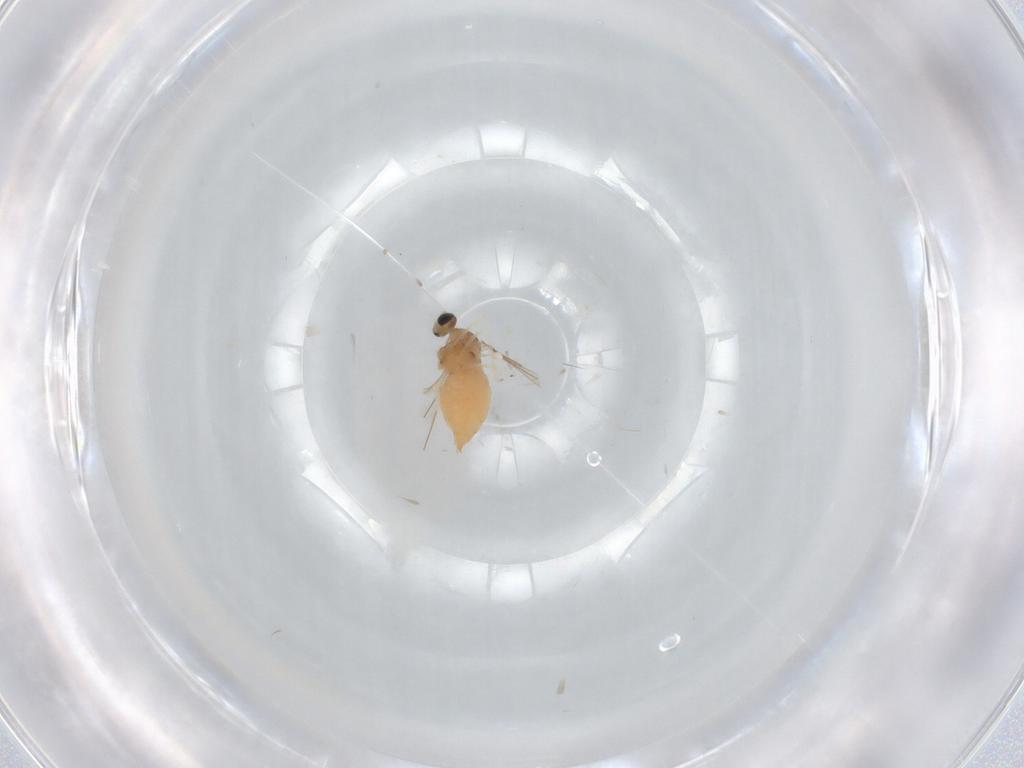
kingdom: Animalia
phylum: Arthropoda
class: Insecta
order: Diptera
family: Cecidomyiidae
